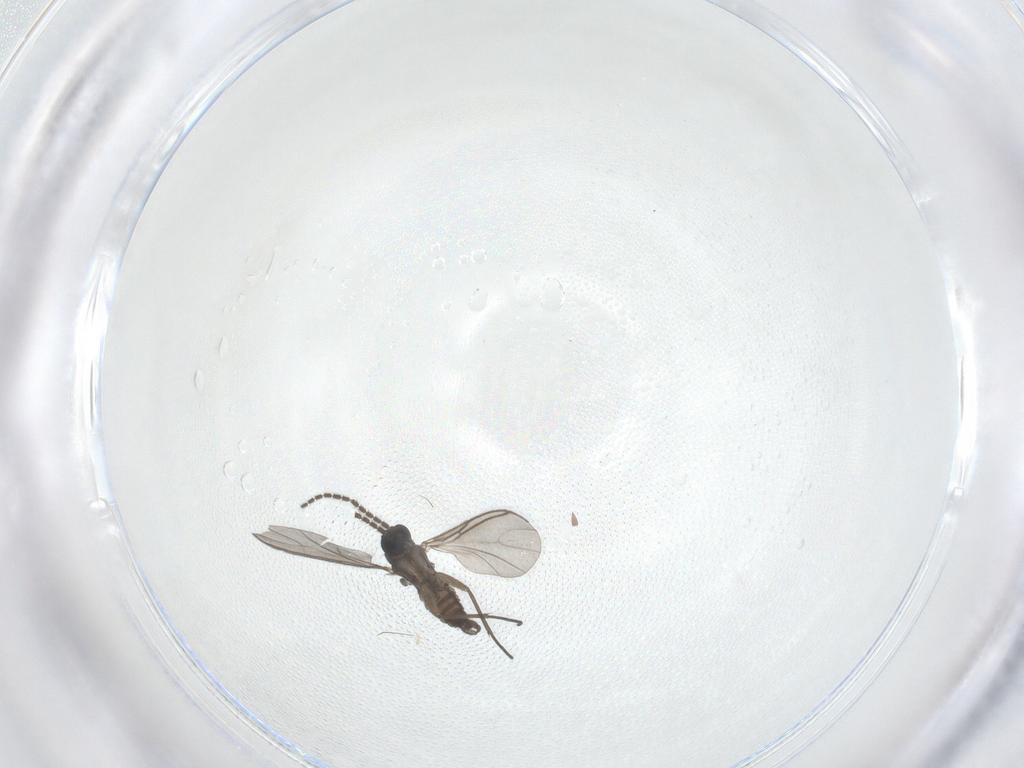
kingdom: Animalia
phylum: Arthropoda
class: Insecta
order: Diptera
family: Sciaridae
